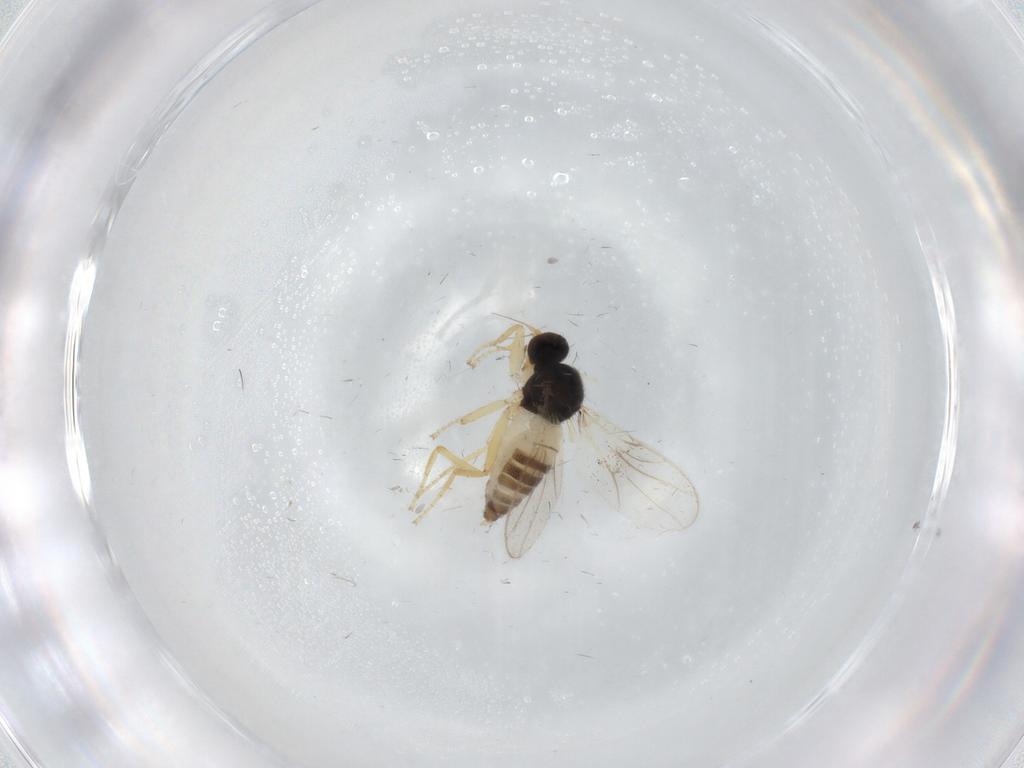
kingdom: Animalia
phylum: Arthropoda
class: Insecta
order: Diptera
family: Hybotidae
